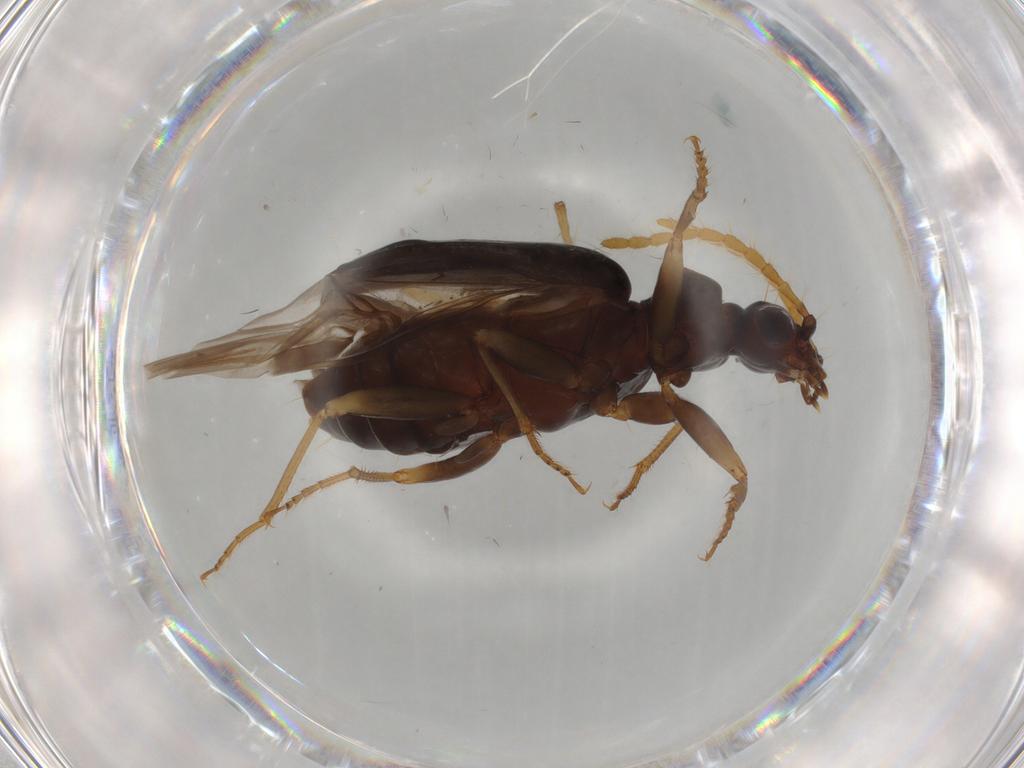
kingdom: Animalia
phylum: Arthropoda
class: Insecta
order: Coleoptera
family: Carabidae
